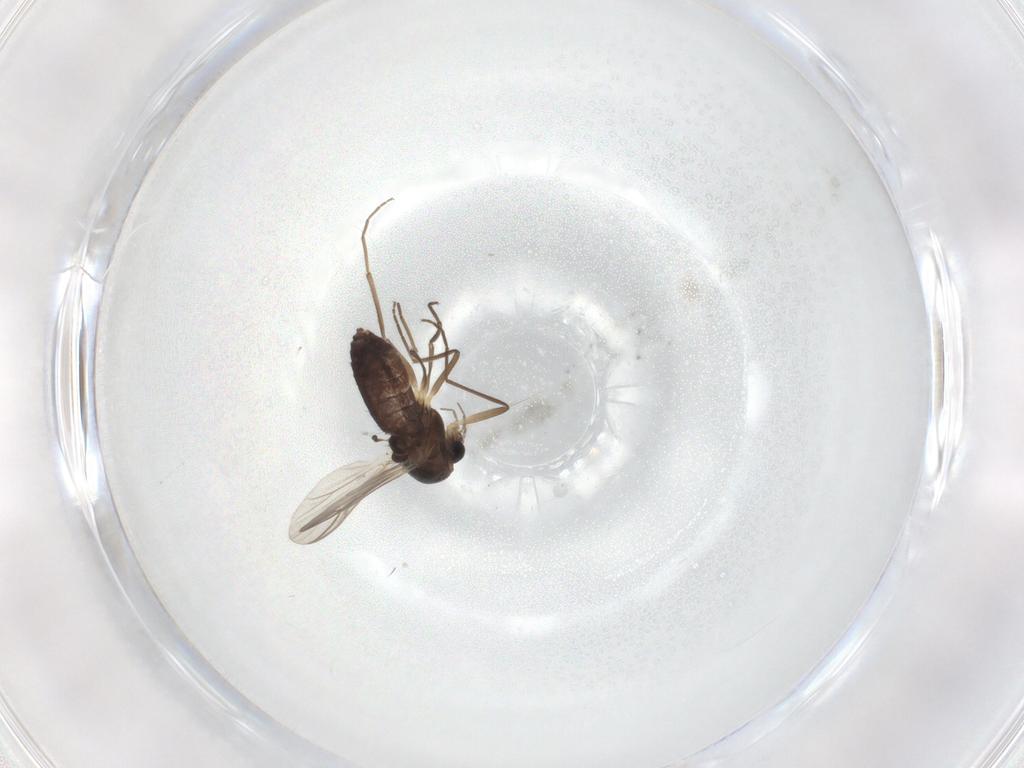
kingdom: Animalia
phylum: Arthropoda
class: Insecta
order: Diptera
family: Chironomidae
